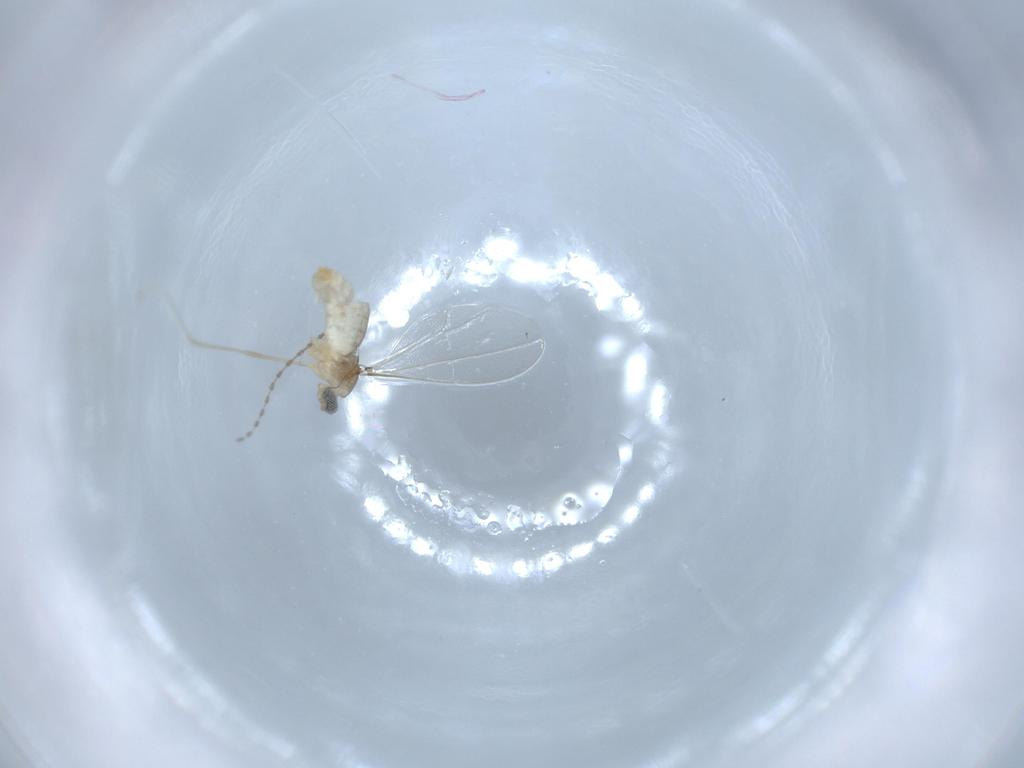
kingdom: Animalia
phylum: Arthropoda
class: Insecta
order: Diptera
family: Cecidomyiidae
